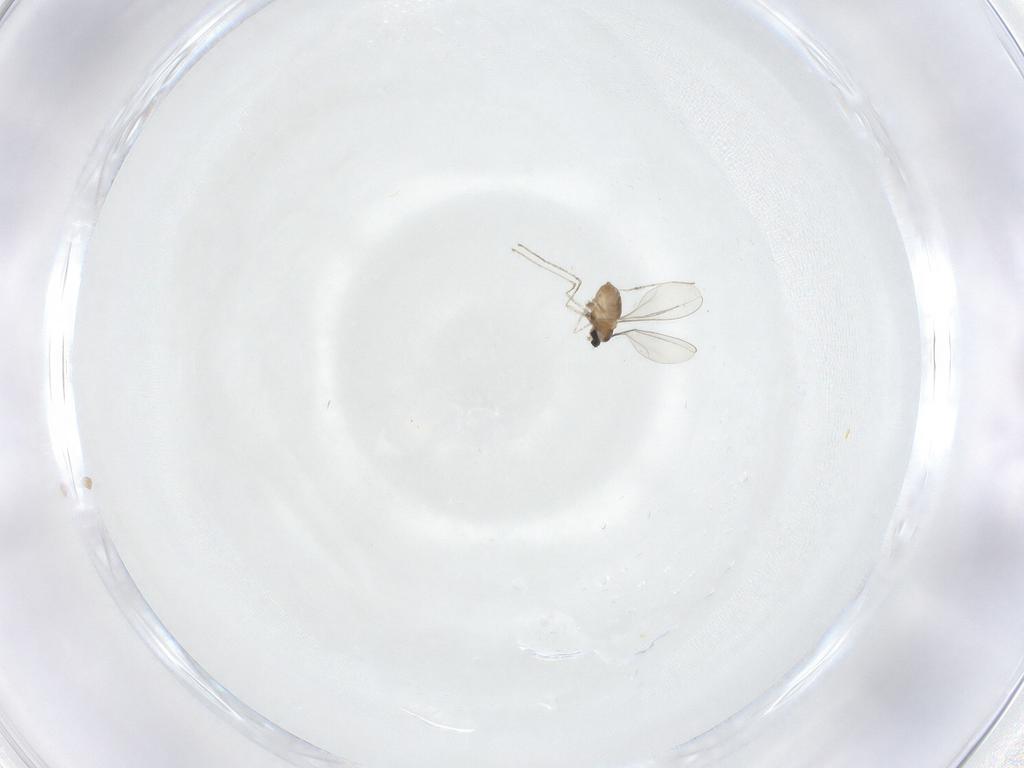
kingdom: Animalia
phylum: Arthropoda
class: Insecta
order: Diptera
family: Cecidomyiidae
